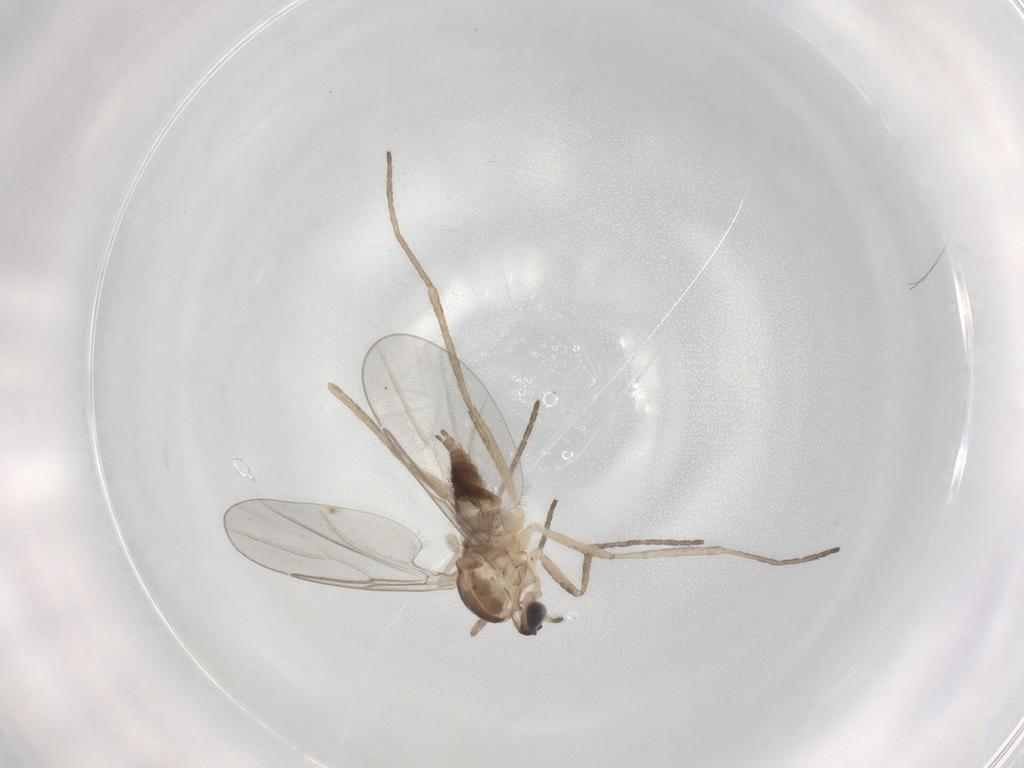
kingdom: Animalia
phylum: Arthropoda
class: Insecta
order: Diptera
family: Cecidomyiidae
